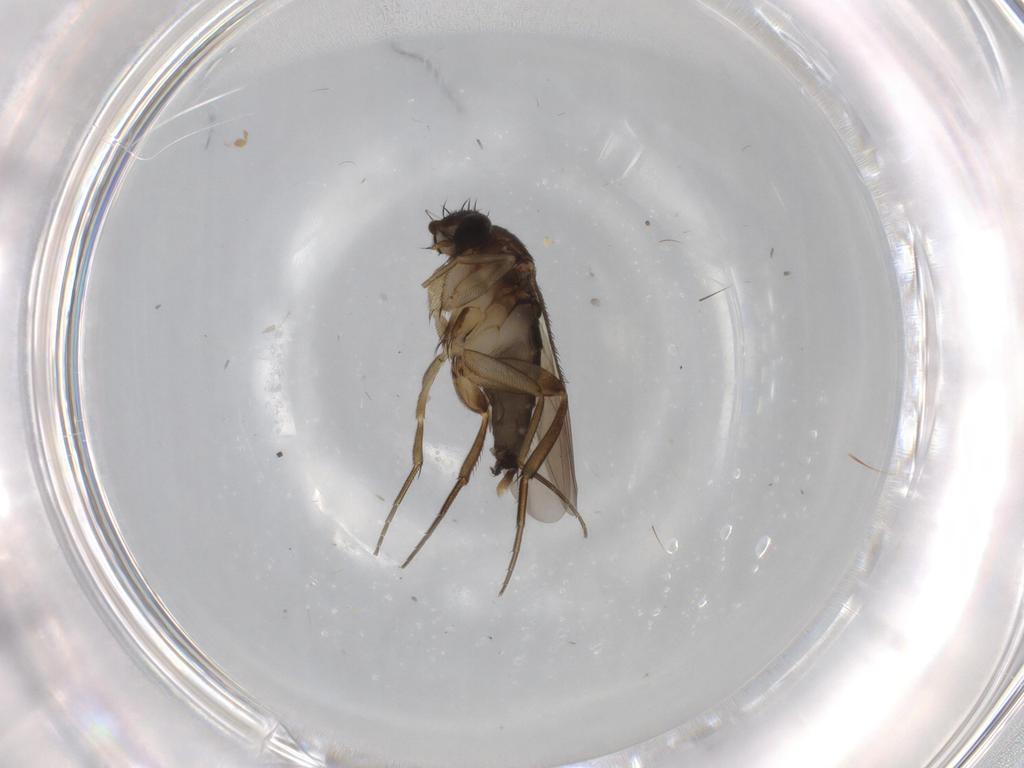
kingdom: Animalia
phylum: Arthropoda
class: Insecta
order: Diptera
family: Phoridae
